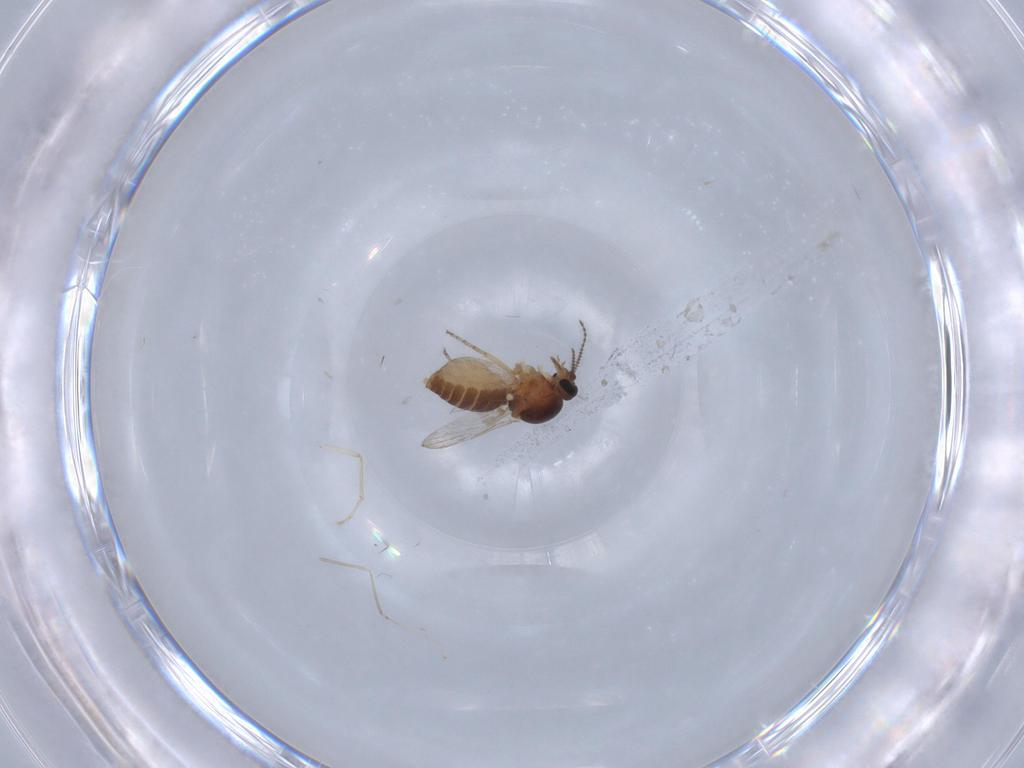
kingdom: Animalia
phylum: Arthropoda
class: Insecta
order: Diptera
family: Ceratopogonidae
